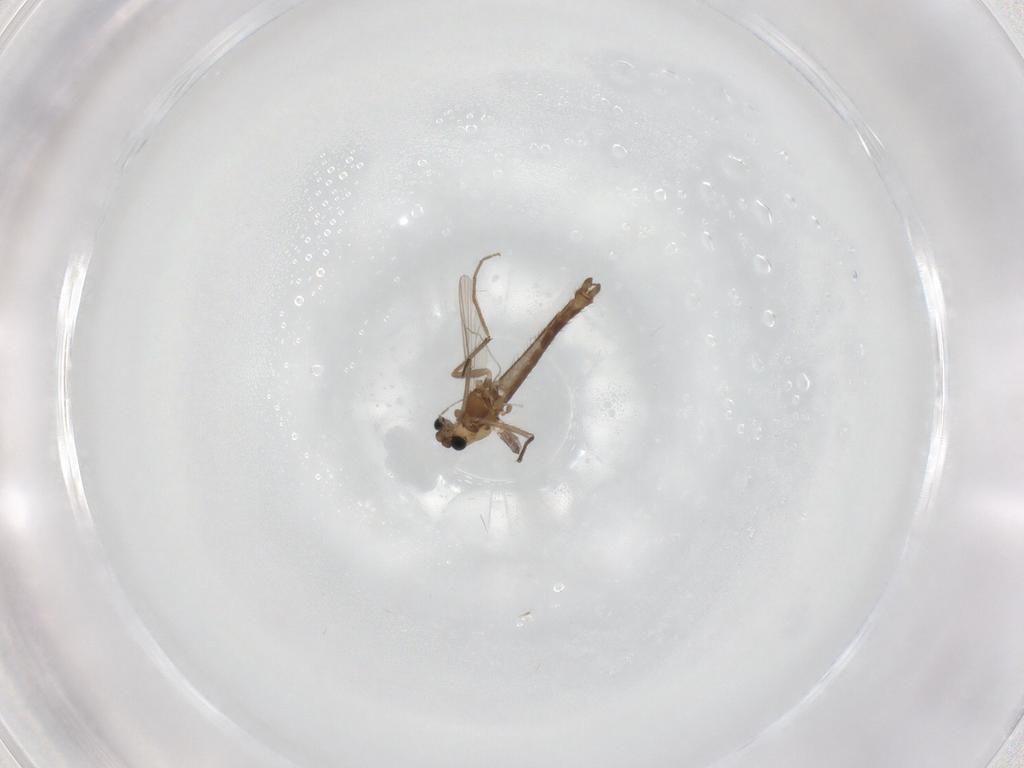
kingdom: Animalia
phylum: Arthropoda
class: Insecta
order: Diptera
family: Chironomidae
